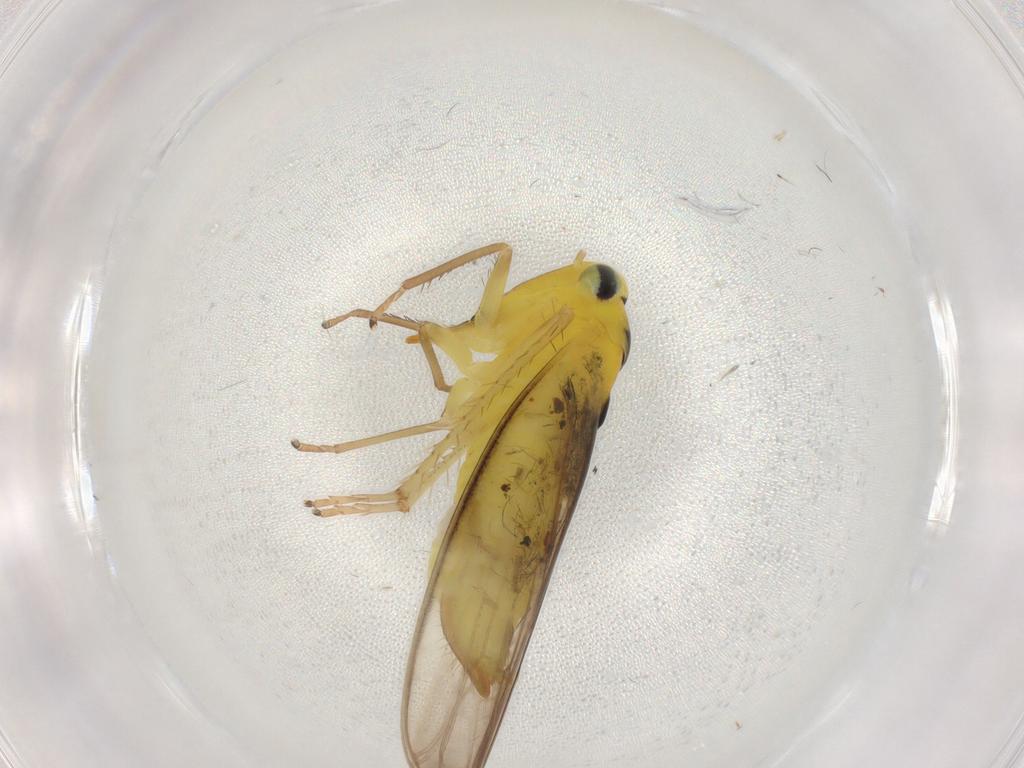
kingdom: Animalia
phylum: Arthropoda
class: Insecta
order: Hemiptera
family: Cicadellidae
